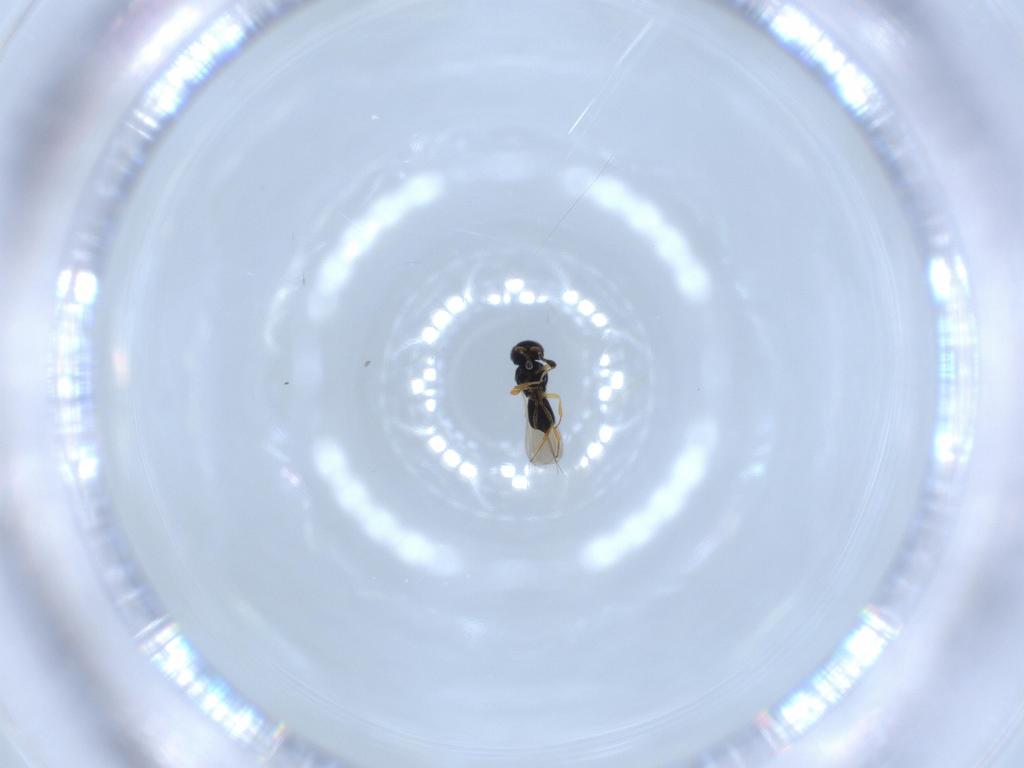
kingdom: Animalia
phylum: Arthropoda
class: Insecta
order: Hymenoptera
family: Scelionidae
